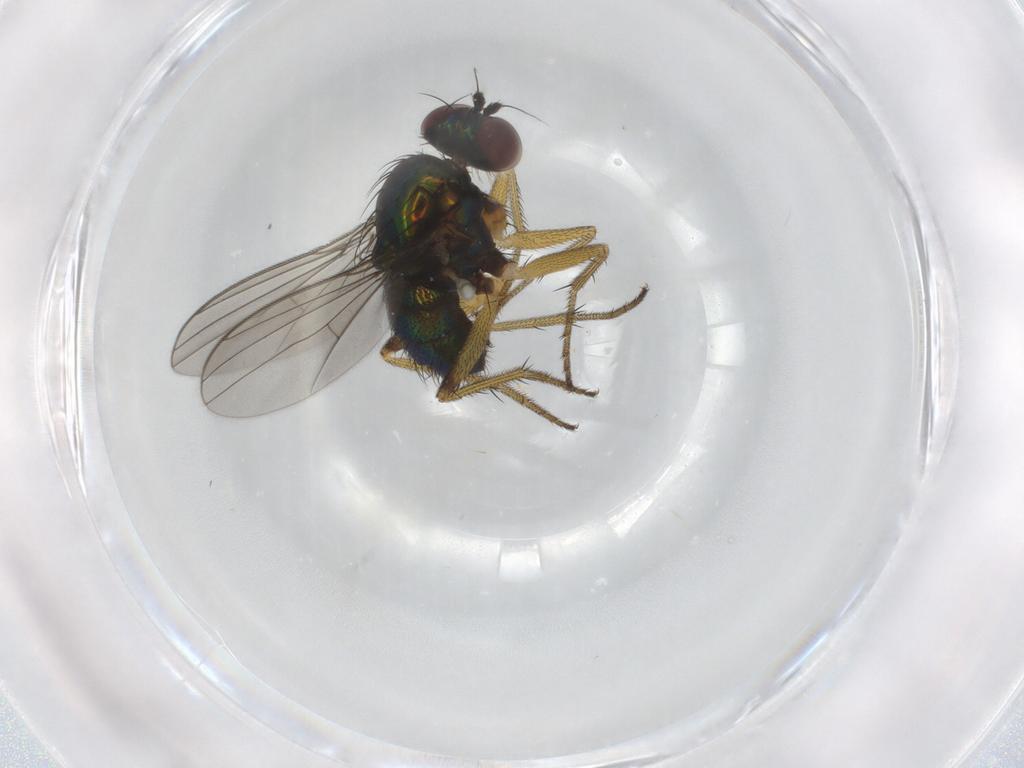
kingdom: Animalia
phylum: Arthropoda
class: Insecta
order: Diptera
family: Dolichopodidae
